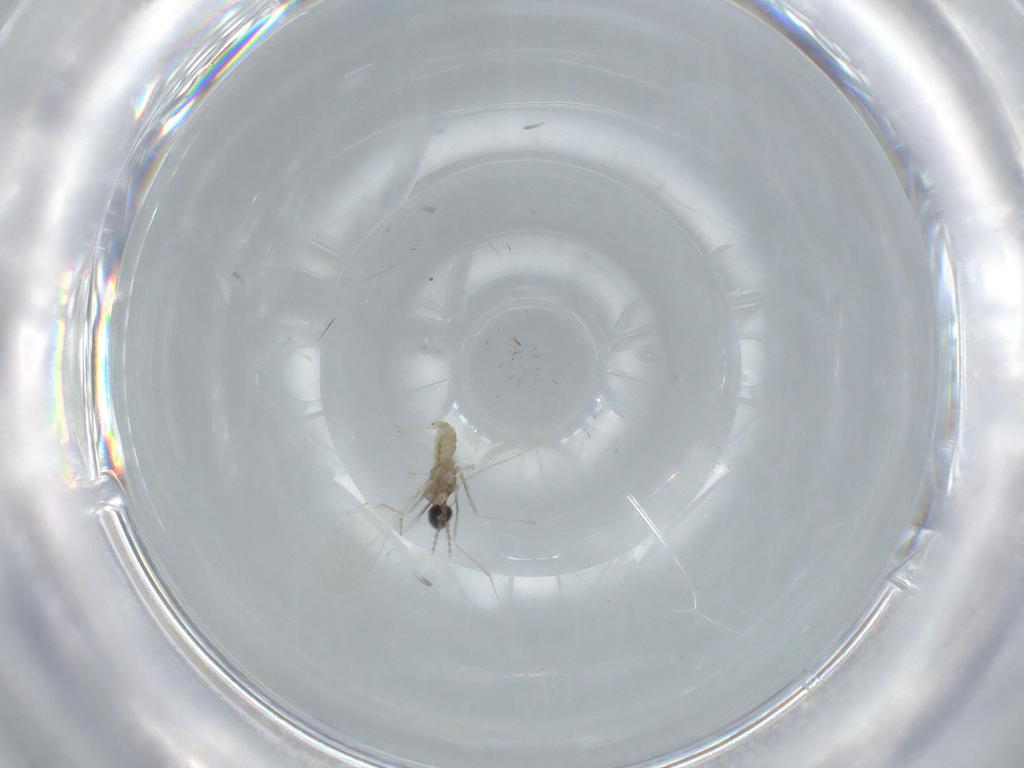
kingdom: Animalia
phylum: Arthropoda
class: Insecta
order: Diptera
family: Cecidomyiidae
